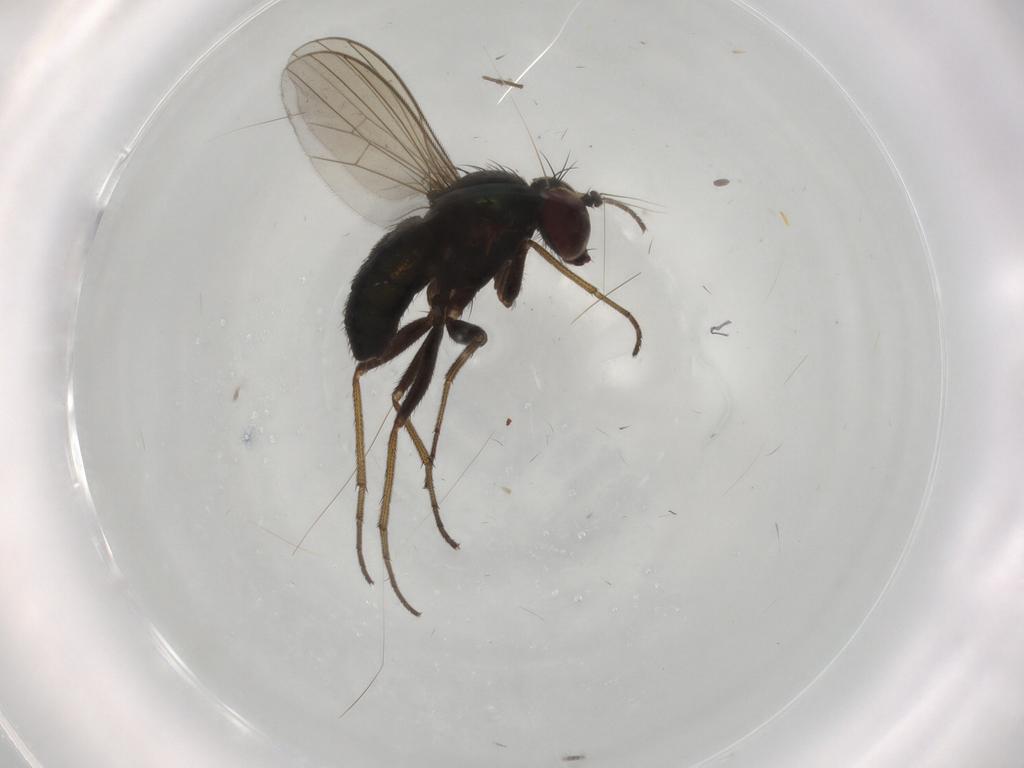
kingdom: Animalia
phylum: Arthropoda
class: Insecta
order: Diptera
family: Dolichopodidae
